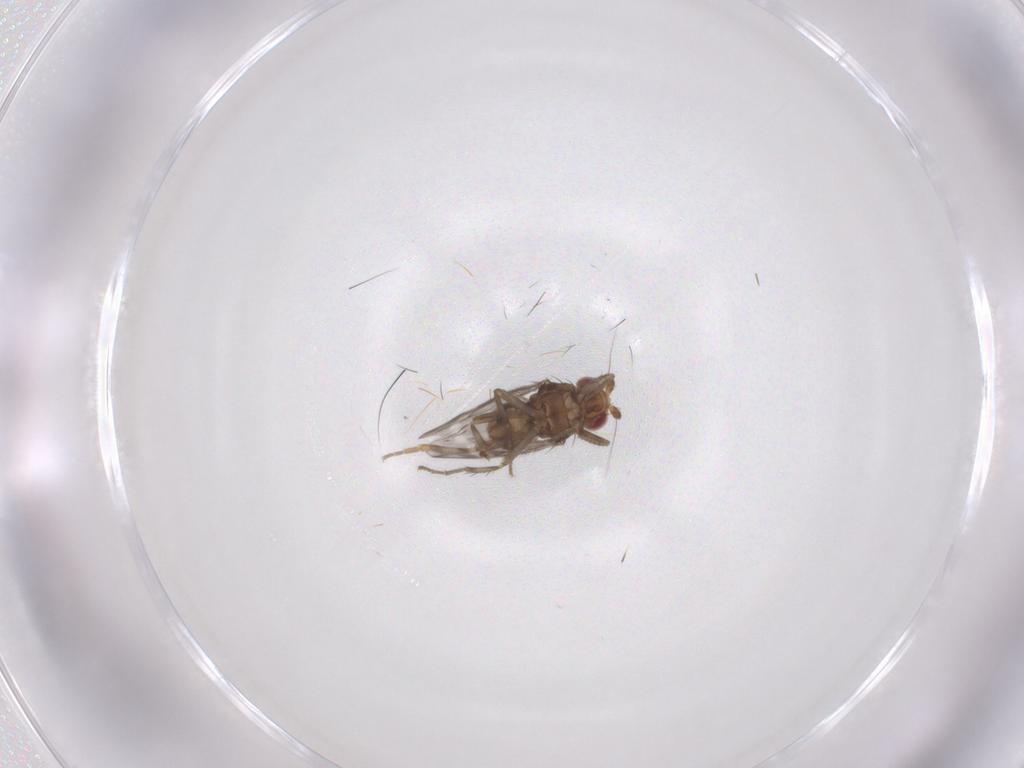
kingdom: Animalia
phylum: Arthropoda
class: Insecta
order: Diptera
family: Phoridae
